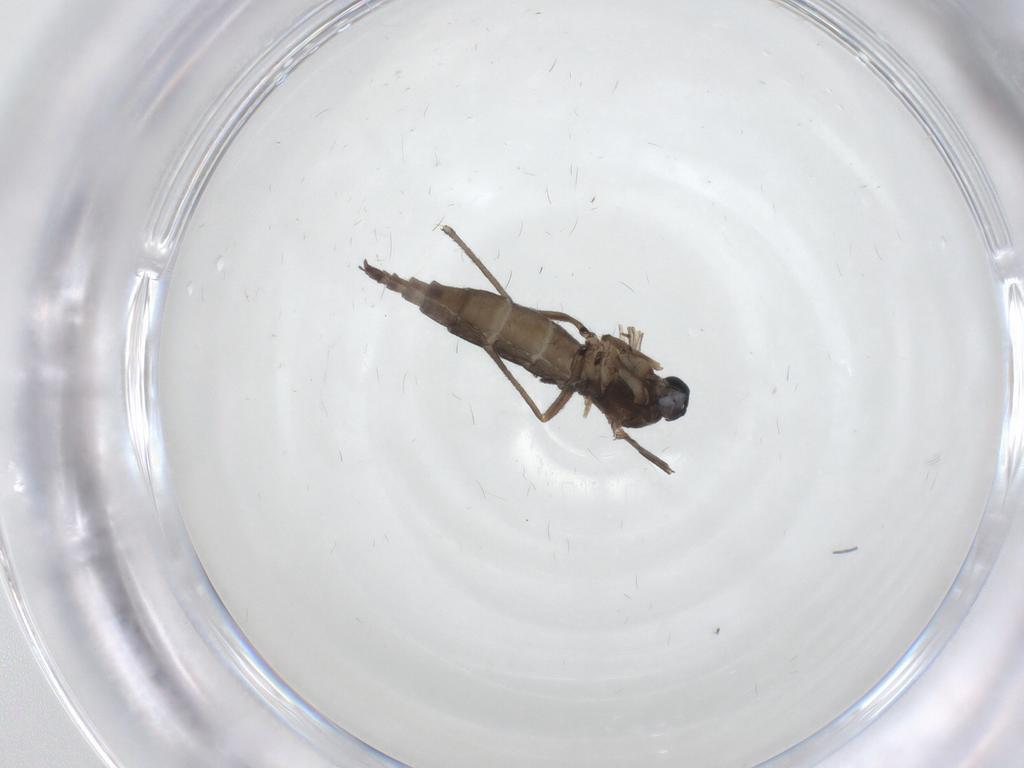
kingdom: Animalia
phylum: Arthropoda
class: Insecta
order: Diptera
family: Sciaridae
